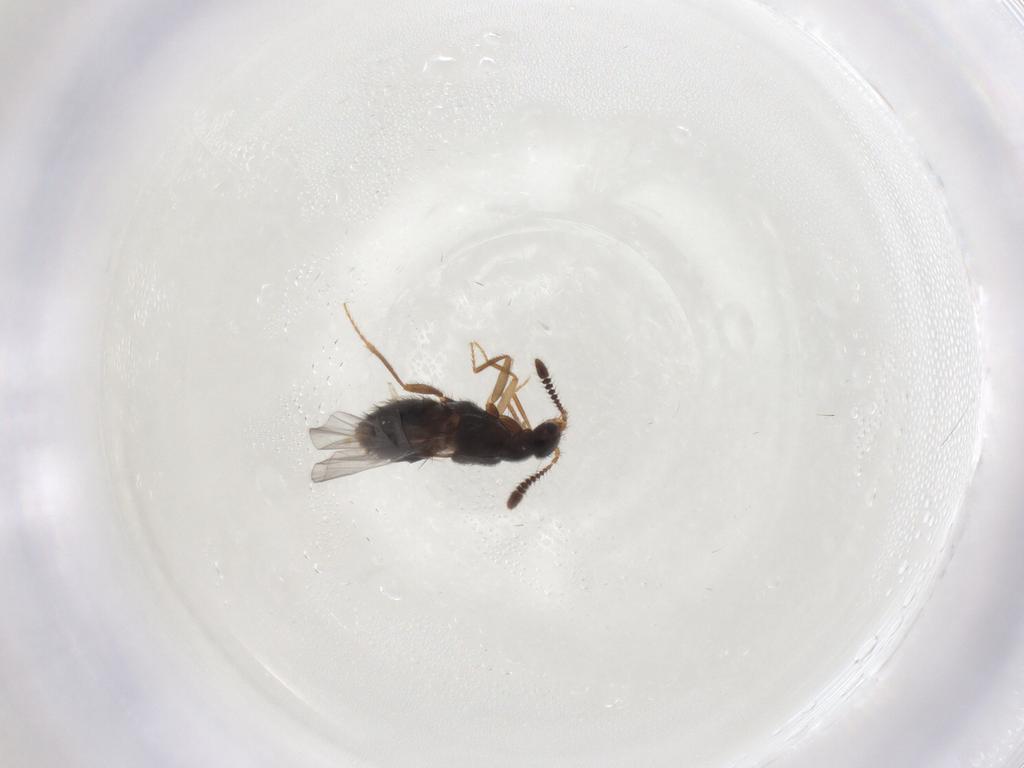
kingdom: Animalia
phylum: Arthropoda
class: Insecta
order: Coleoptera
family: Staphylinidae
